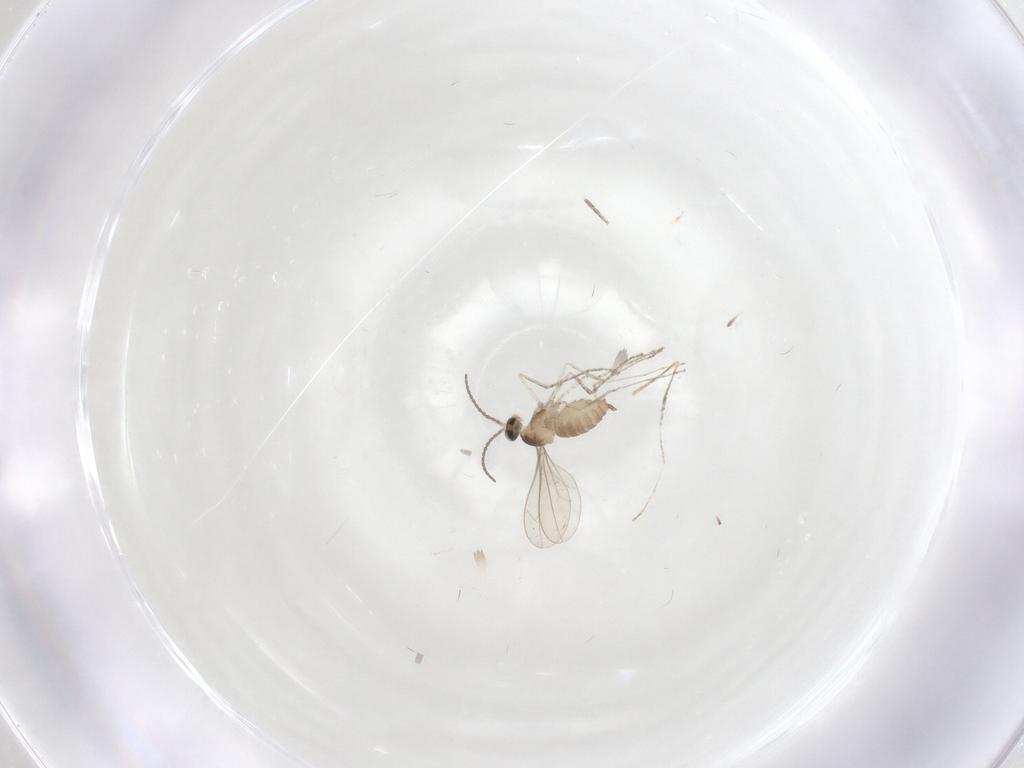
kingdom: Animalia
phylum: Arthropoda
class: Insecta
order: Diptera
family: Cecidomyiidae
